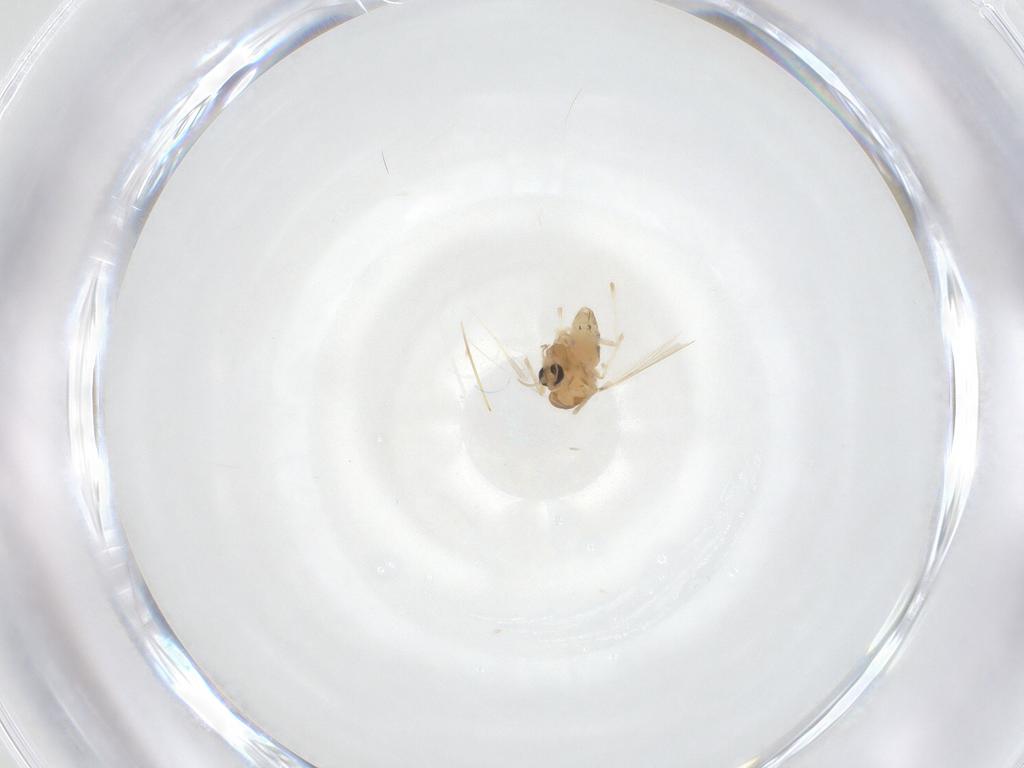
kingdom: Animalia
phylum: Arthropoda
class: Insecta
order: Diptera
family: Chironomidae
